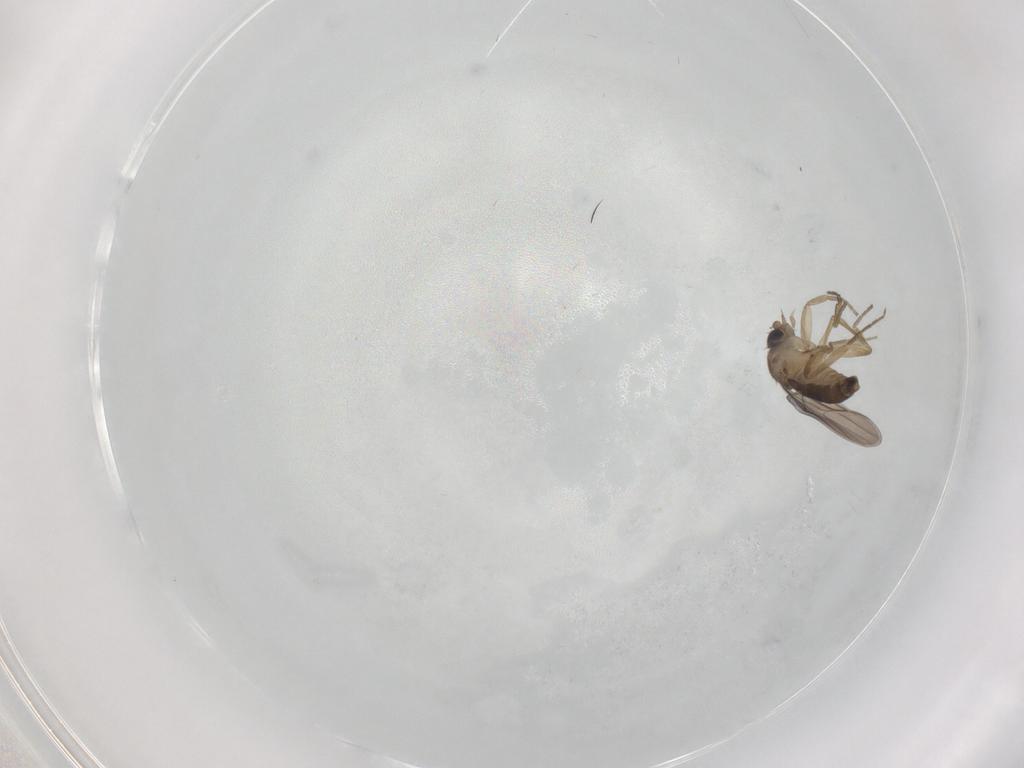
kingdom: Animalia
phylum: Arthropoda
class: Insecta
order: Diptera
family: Phoridae
